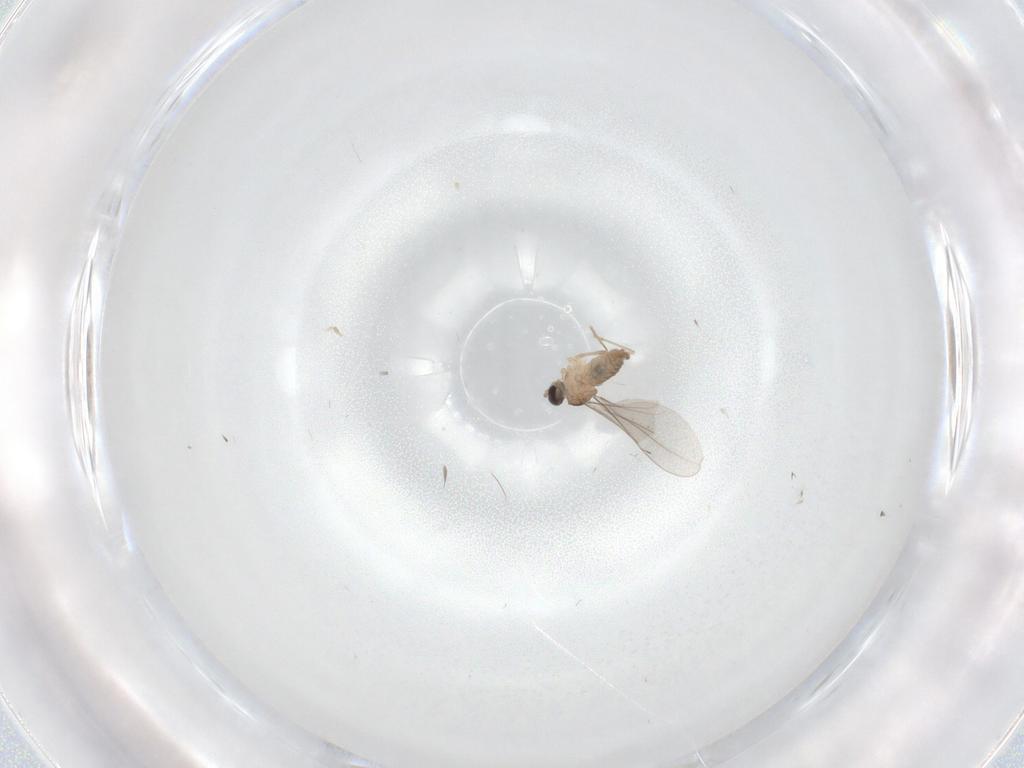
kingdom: Animalia
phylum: Arthropoda
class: Insecta
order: Diptera
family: Cecidomyiidae
